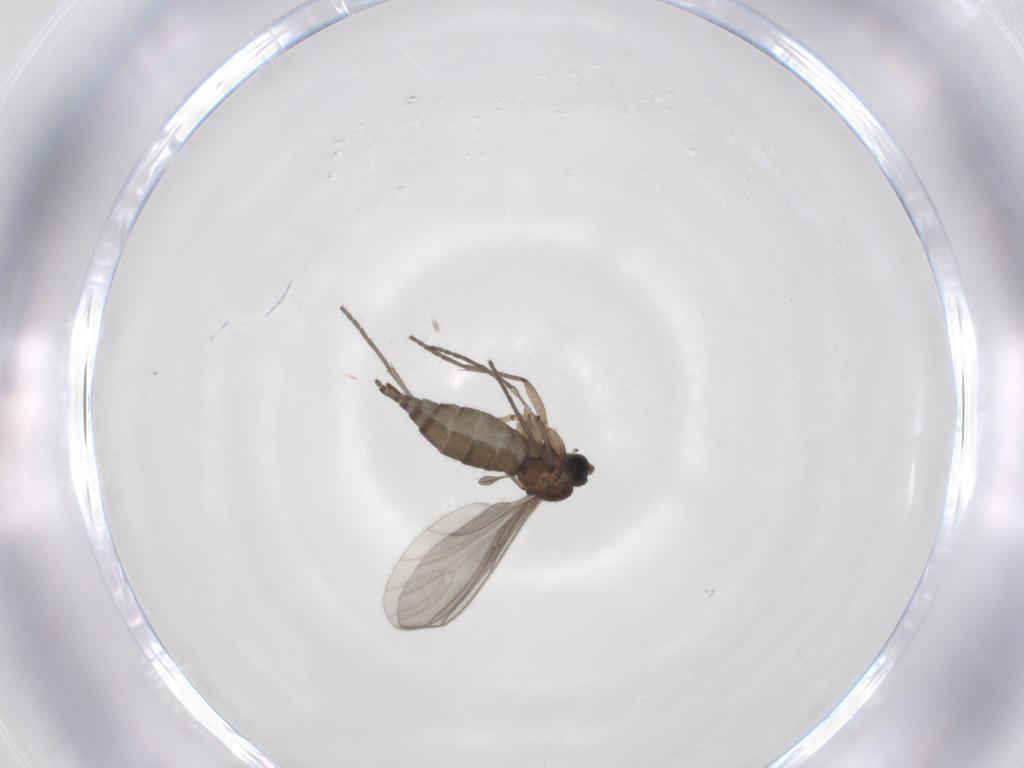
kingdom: Animalia
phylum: Arthropoda
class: Insecta
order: Diptera
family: Sciaridae
